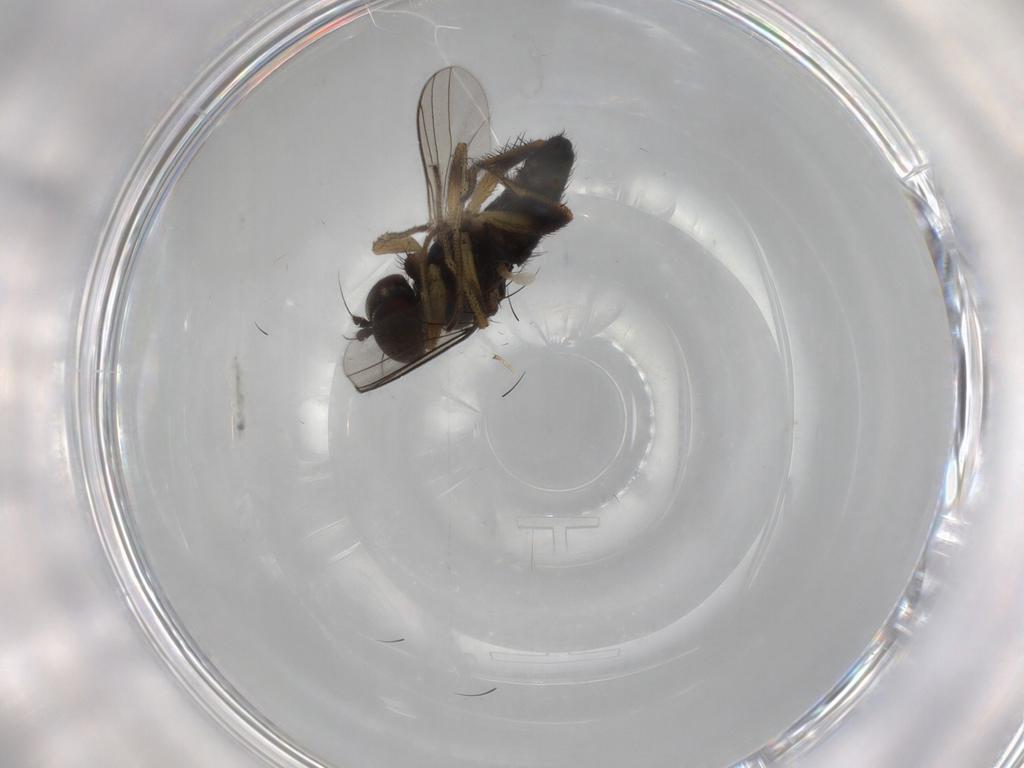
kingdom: Animalia
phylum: Arthropoda
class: Insecta
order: Diptera
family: Dolichopodidae
